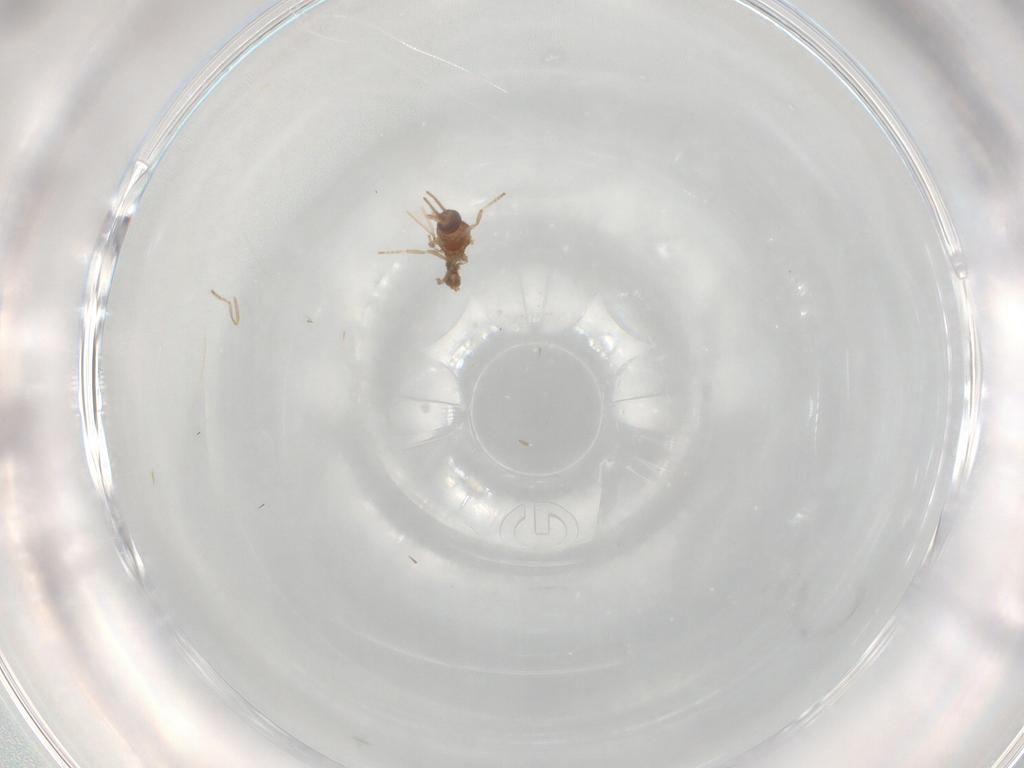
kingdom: Animalia
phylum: Arthropoda
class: Insecta
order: Diptera
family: Ceratopogonidae
